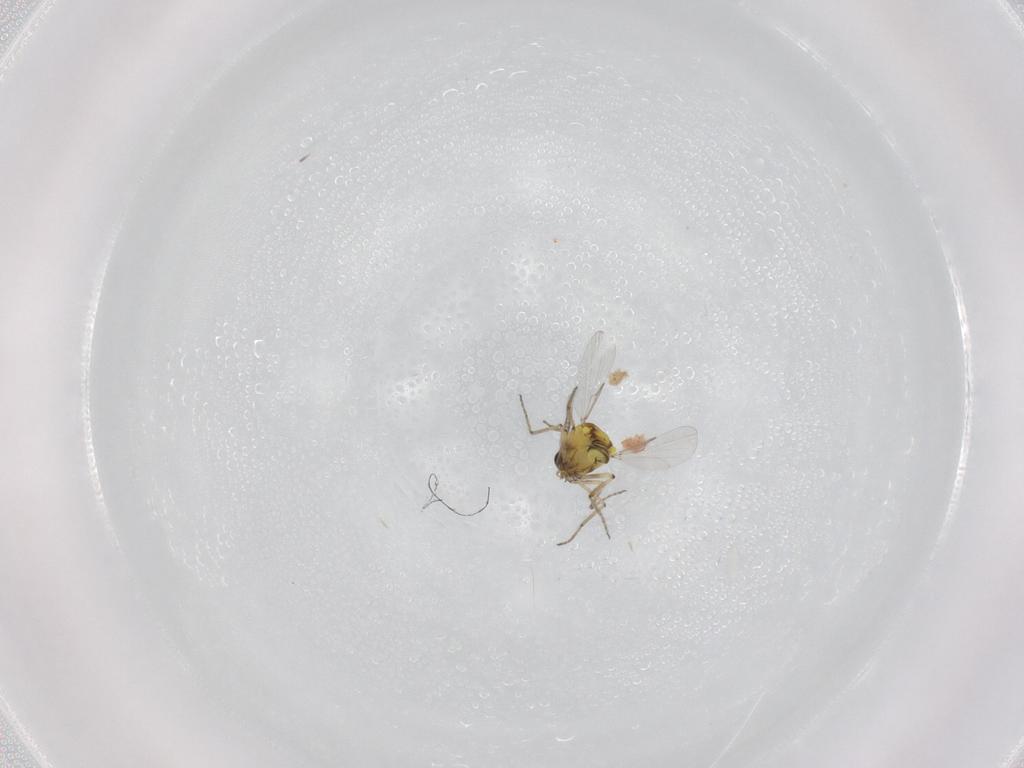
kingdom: Animalia
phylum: Arthropoda
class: Insecta
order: Diptera
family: Ceratopogonidae
